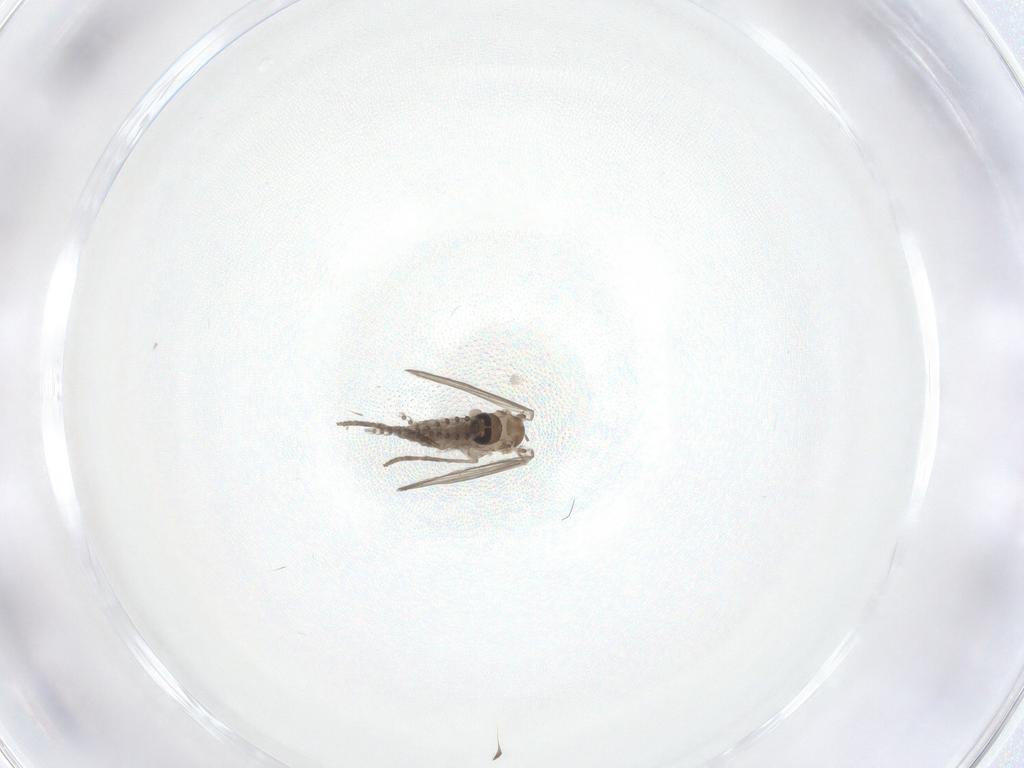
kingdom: Animalia
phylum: Arthropoda
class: Insecta
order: Diptera
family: Psychodidae
